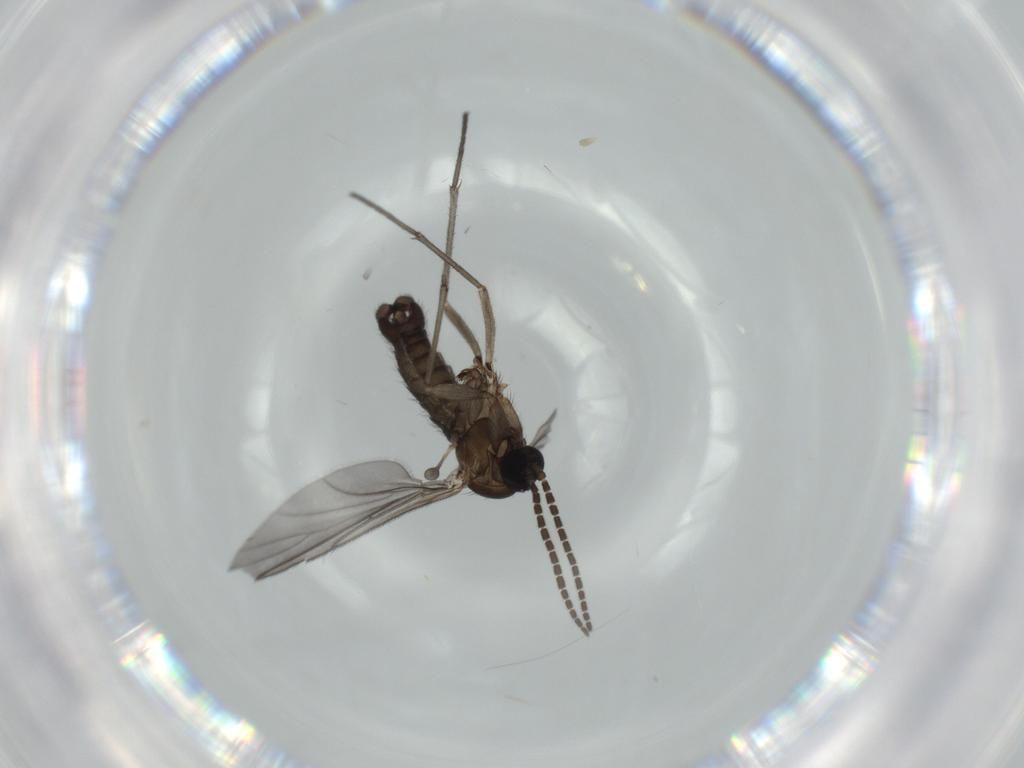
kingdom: Animalia
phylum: Arthropoda
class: Insecta
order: Diptera
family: Sciaridae
